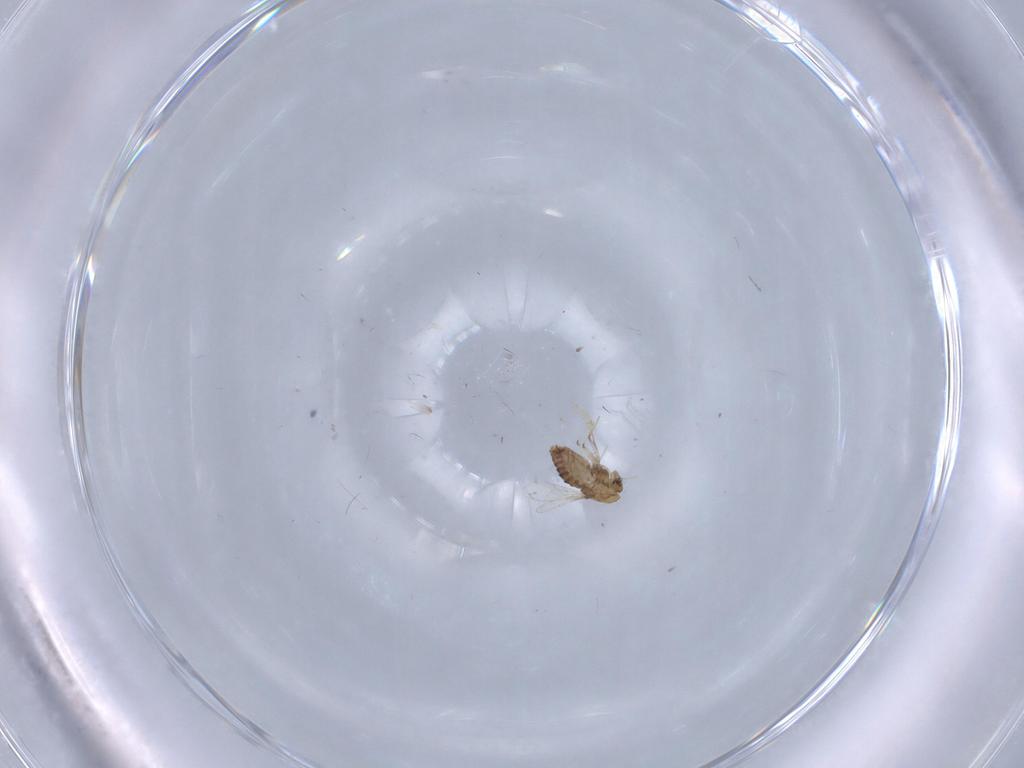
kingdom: Animalia
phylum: Arthropoda
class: Insecta
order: Diptera
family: Chironomidae
